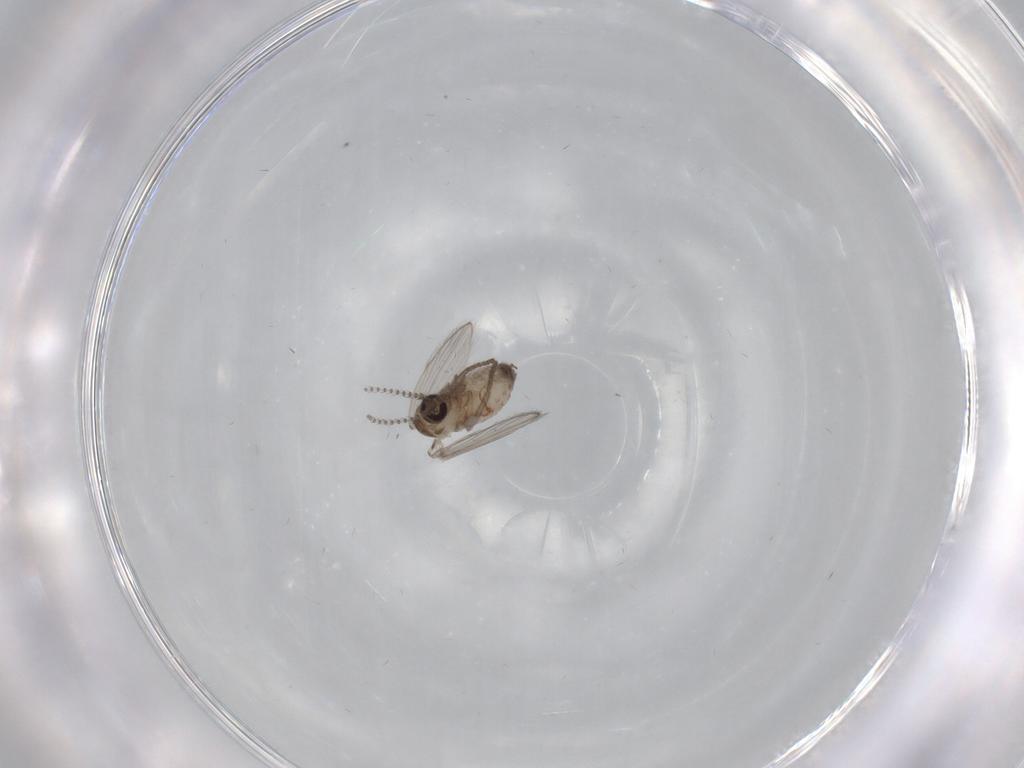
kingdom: Animalia
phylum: Arthropoda
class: Insecta
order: Diptera
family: Psychodidae
